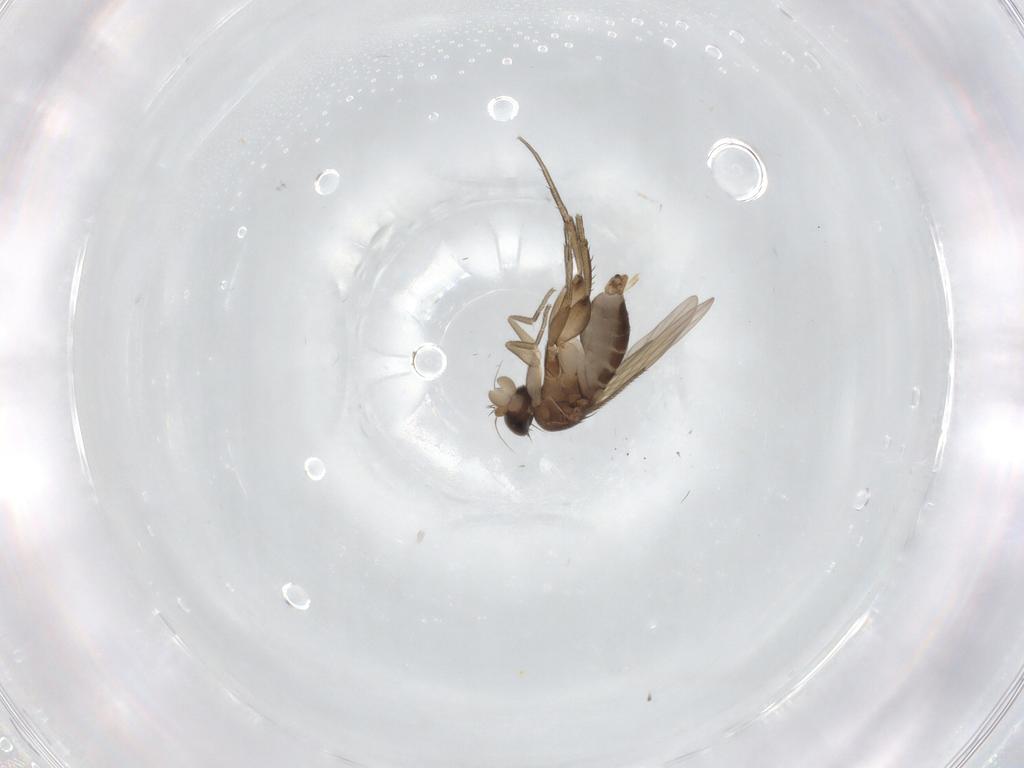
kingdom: Animalia
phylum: Arthropoda
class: Insecta
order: Diptera
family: Phoridae
